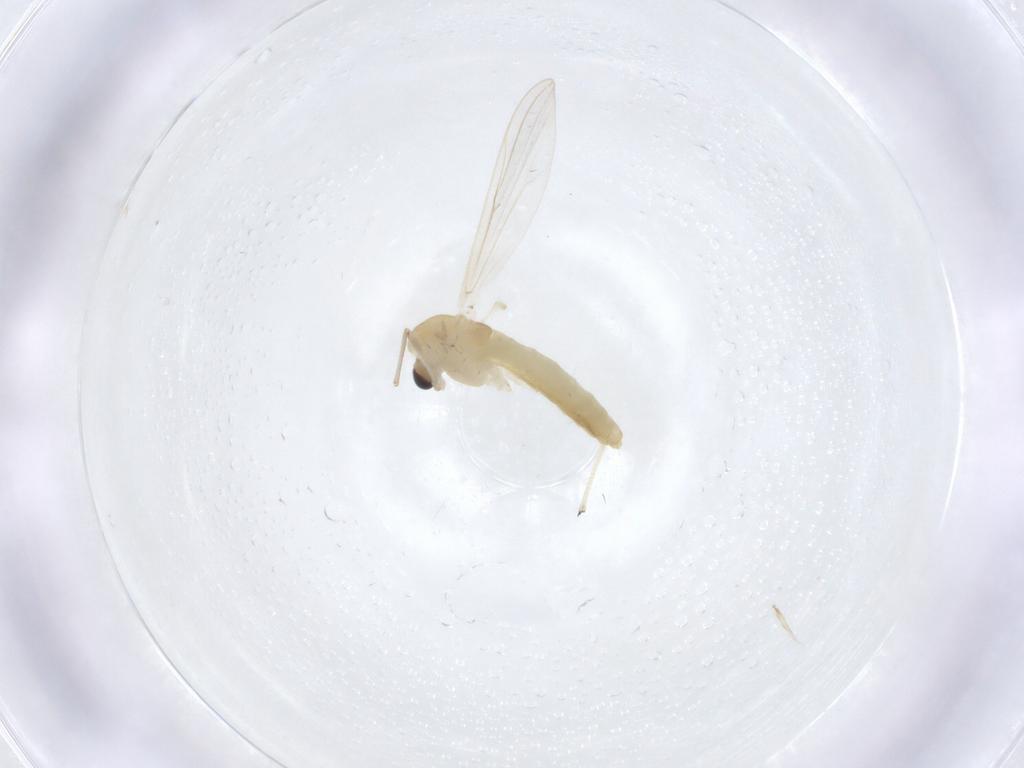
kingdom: Animalia
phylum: Arthropoda
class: Insecta
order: Diptera
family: Chironomidae
